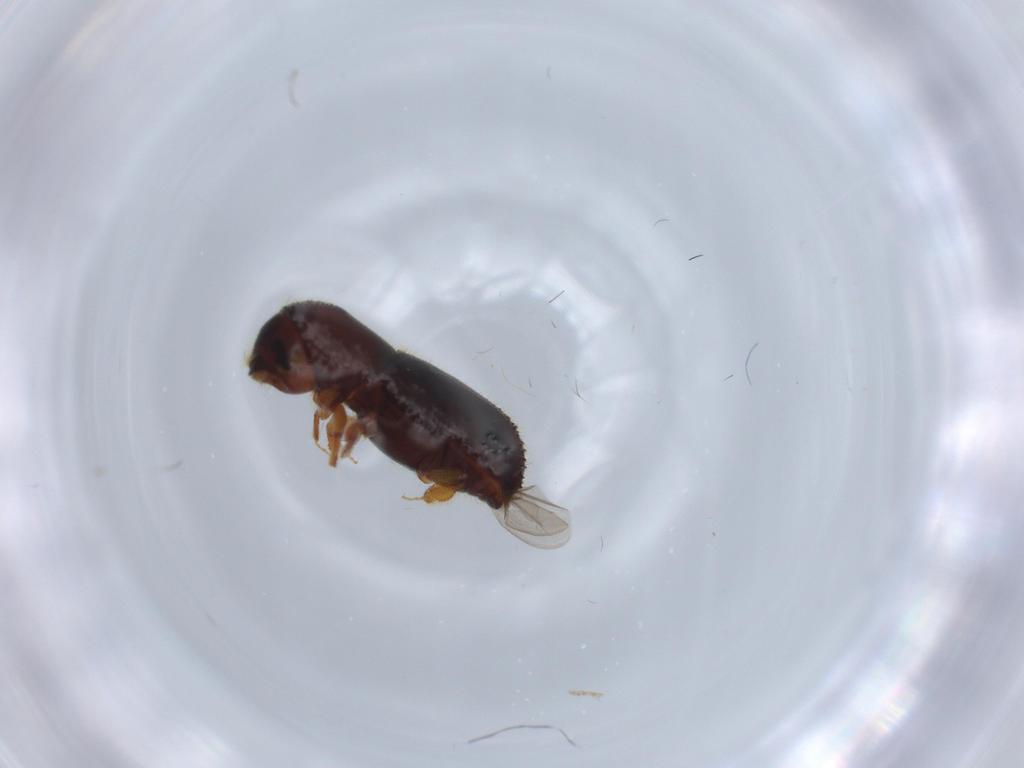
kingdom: Animalia
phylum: Arthropoda
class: Insecta
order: Coleoptera
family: Curculionidae
